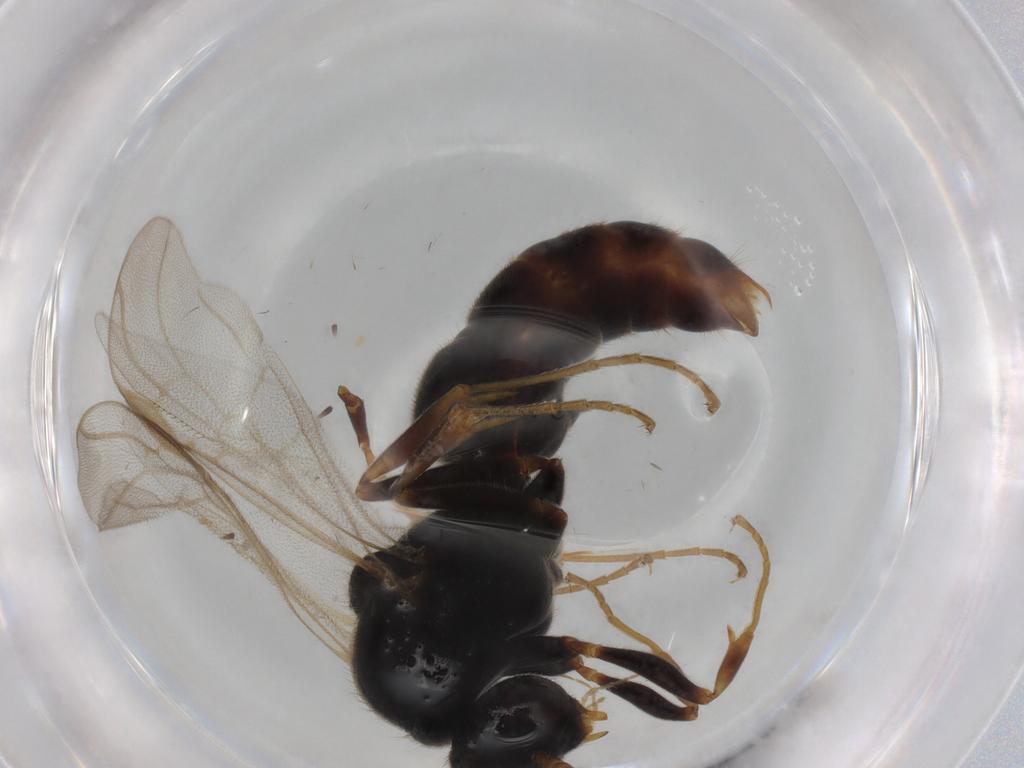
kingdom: Animalia
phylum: Arthropoda
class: Insecta
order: Hymenoptera
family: Formicidae
